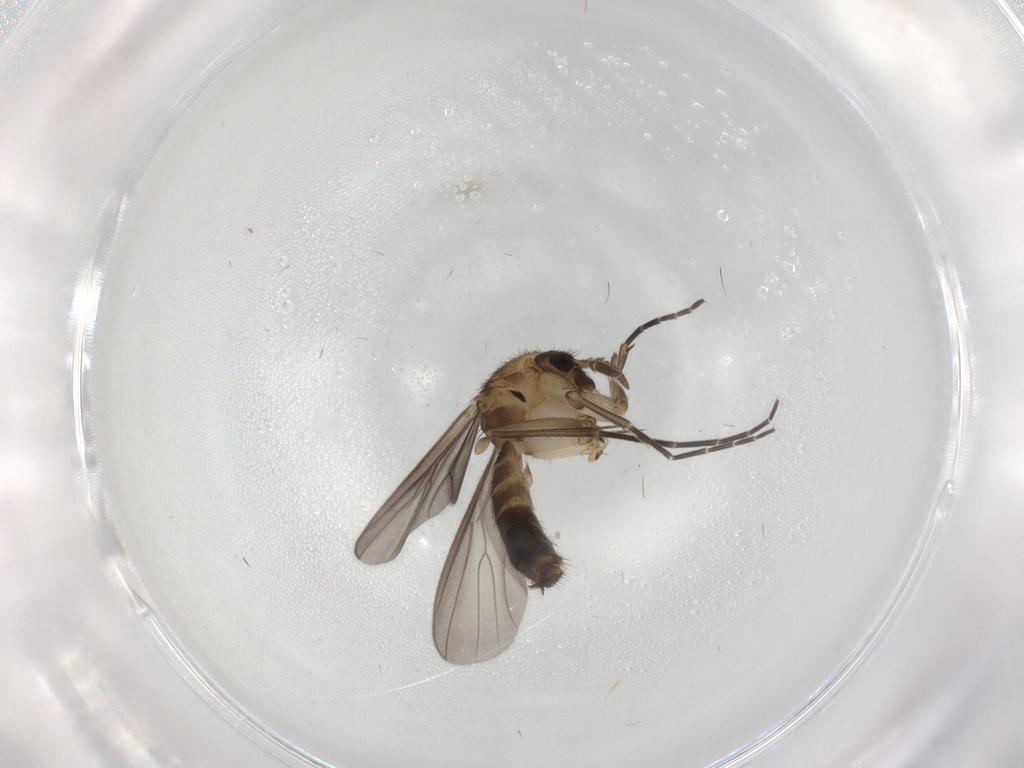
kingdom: Animalia
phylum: Arthropoda
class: Insecta
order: Diptera
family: Mycetophilidae
